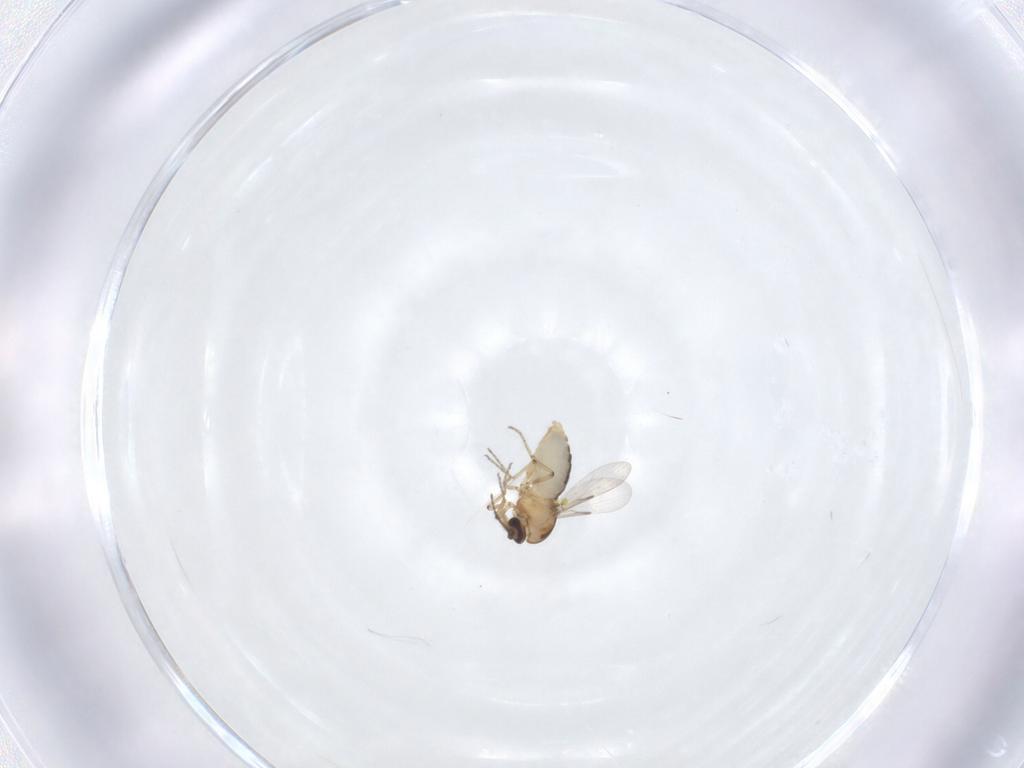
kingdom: Animalia
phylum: Arthropoda
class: Insecta
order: Diptera
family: Ceratopogonidae
